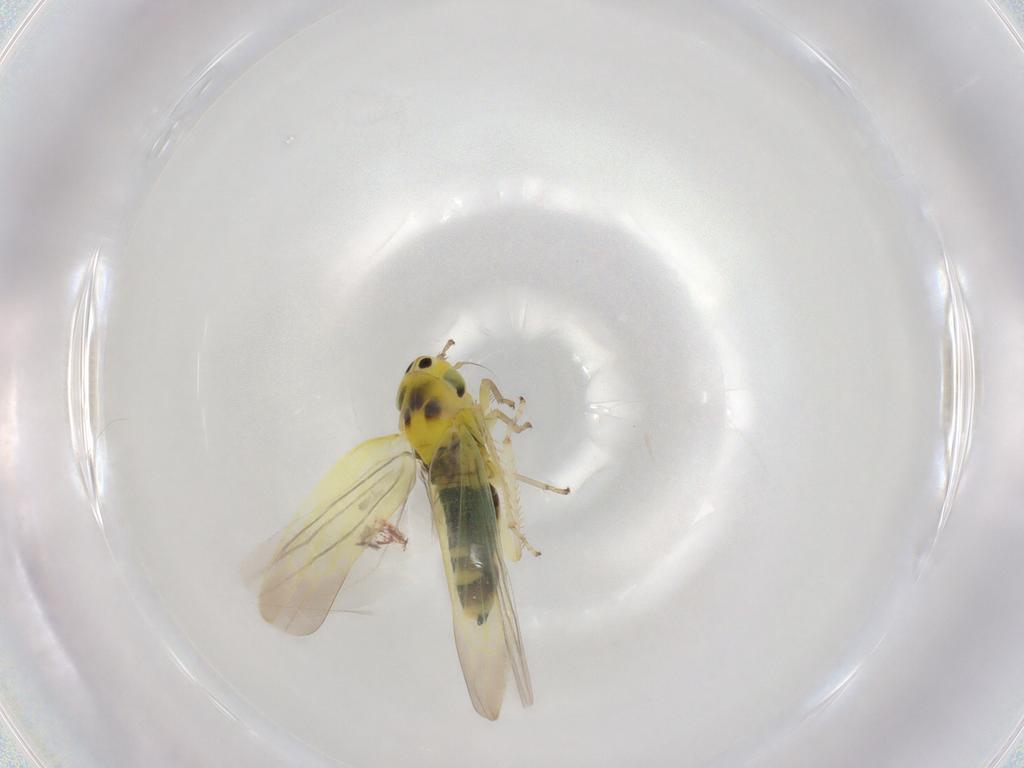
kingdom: Animalia
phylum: Arthropoda
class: Insecta
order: Hemiptera
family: Cicadellidae
